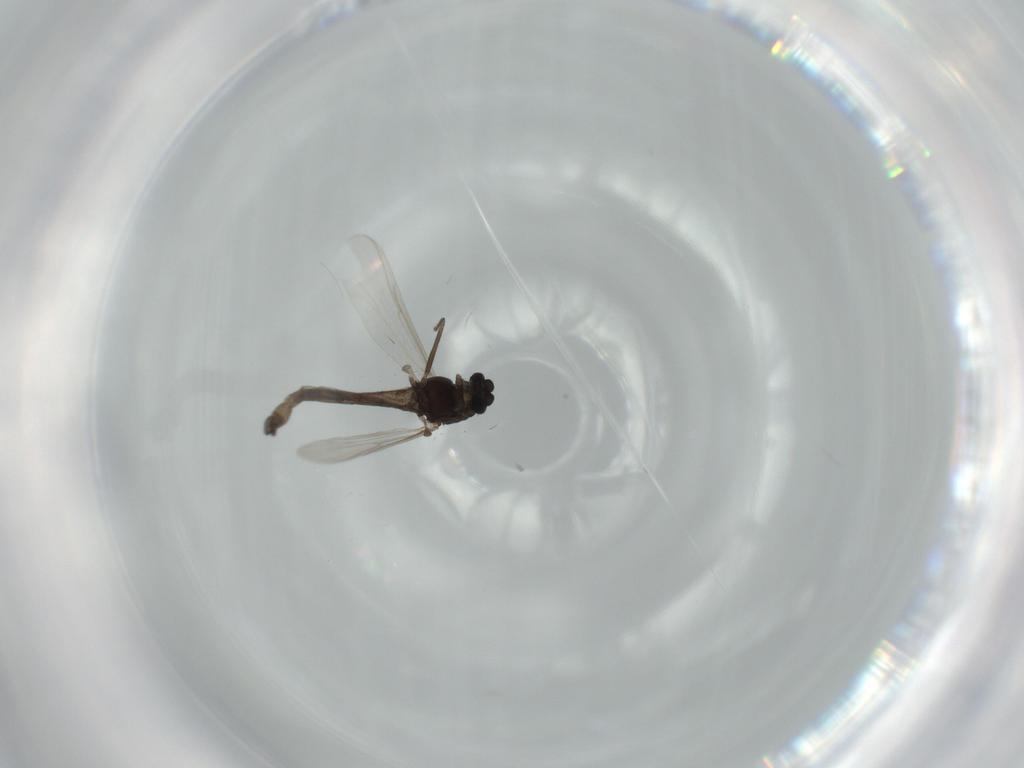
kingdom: Animalia
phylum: Arthropoda
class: Insecta
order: Diptera
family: Chironomidae
